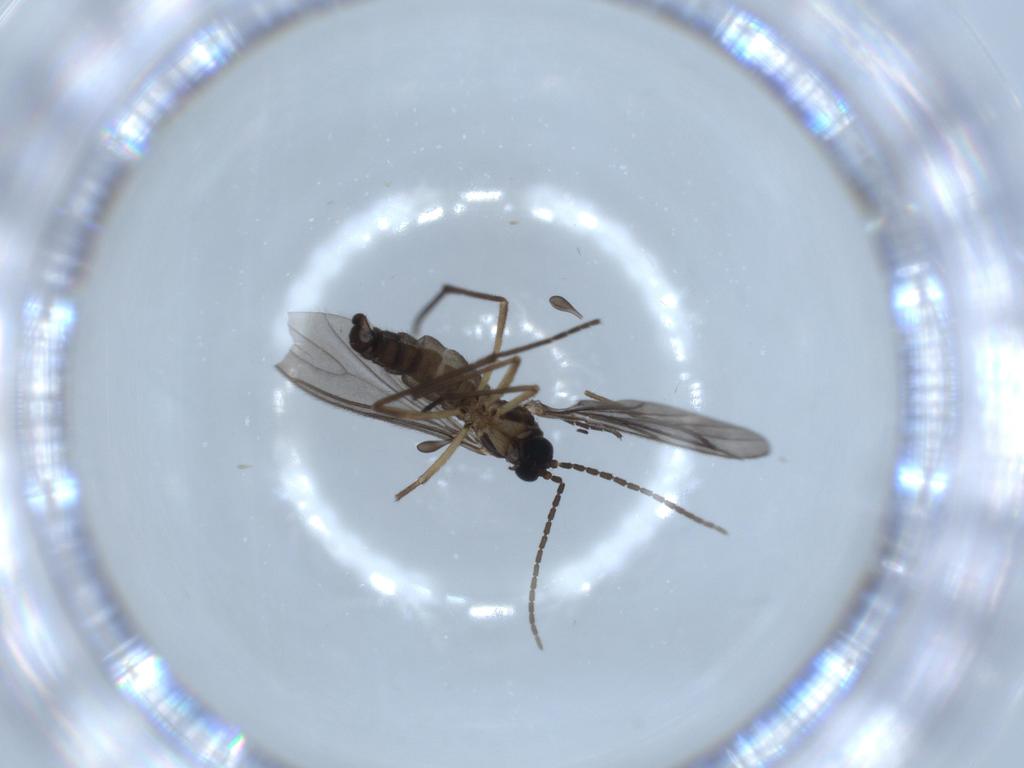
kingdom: Animalia
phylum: Arthropoda
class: Insecta
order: Diptera
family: Sciaridae
